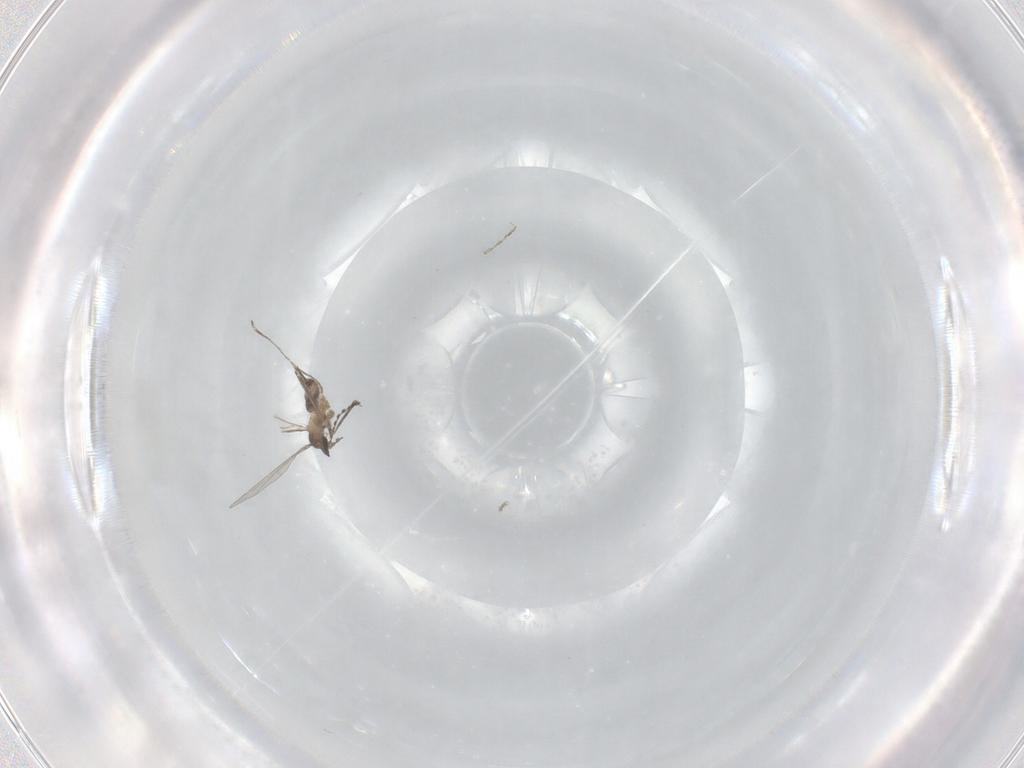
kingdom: Animalia
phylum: Arthropoda
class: Insecta
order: Diptera
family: Cecidomyiidae
